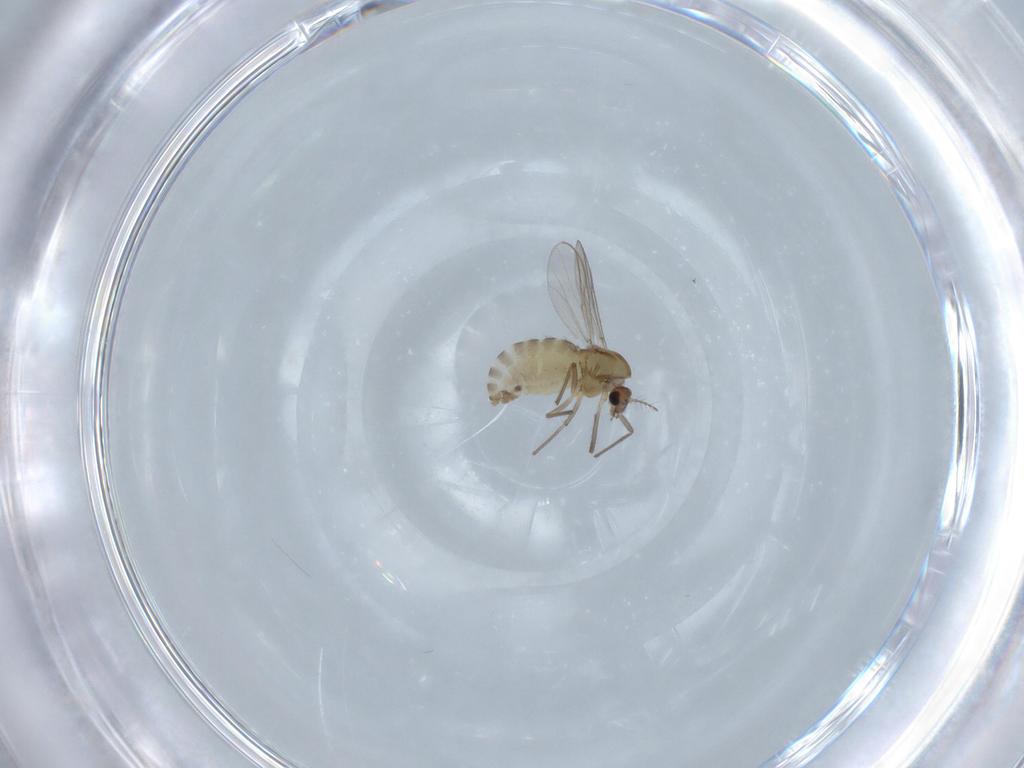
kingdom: Animalia
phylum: Arthropoda
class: Insecta
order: Diptera
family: Chironomidae
